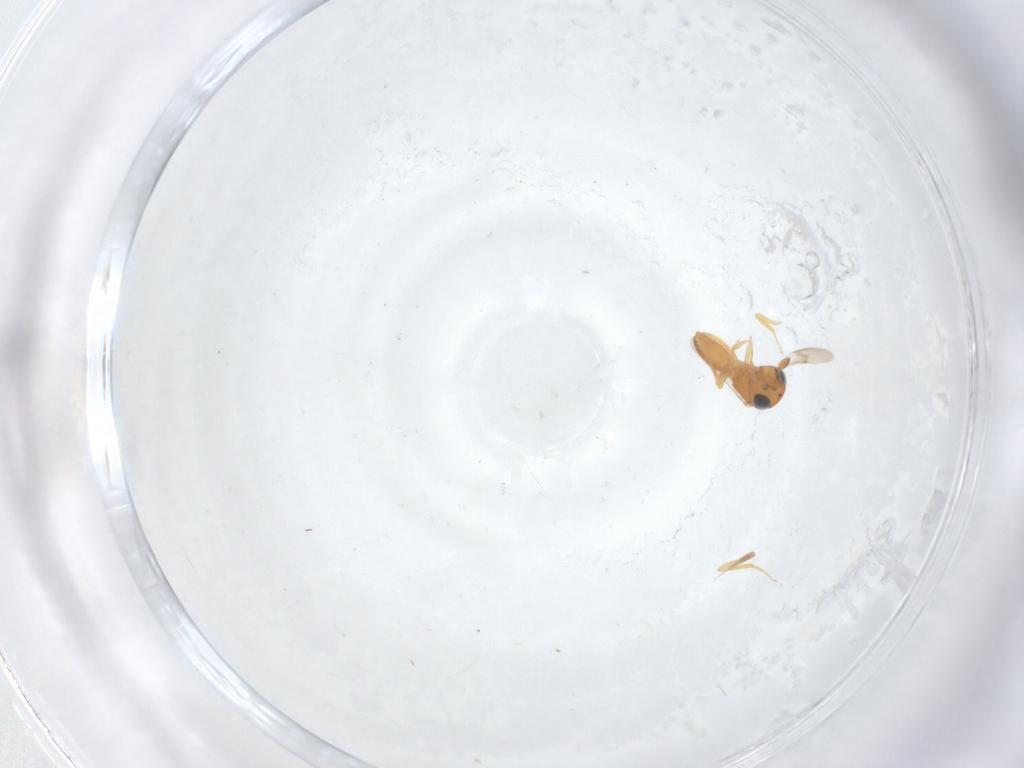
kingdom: Animalia
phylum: Arthropoda
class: Insecta
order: Hymenoptera
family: Scelionidae
